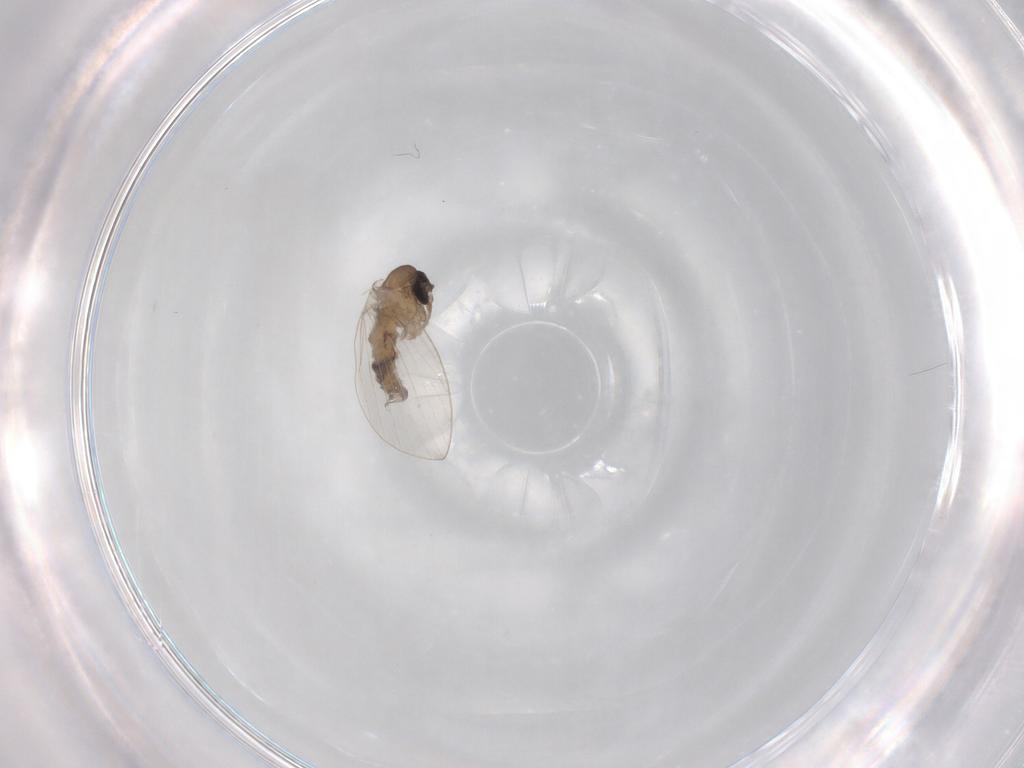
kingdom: Animalia
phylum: Arthropoda
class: Insecta
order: Diptera
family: Psychodidae
